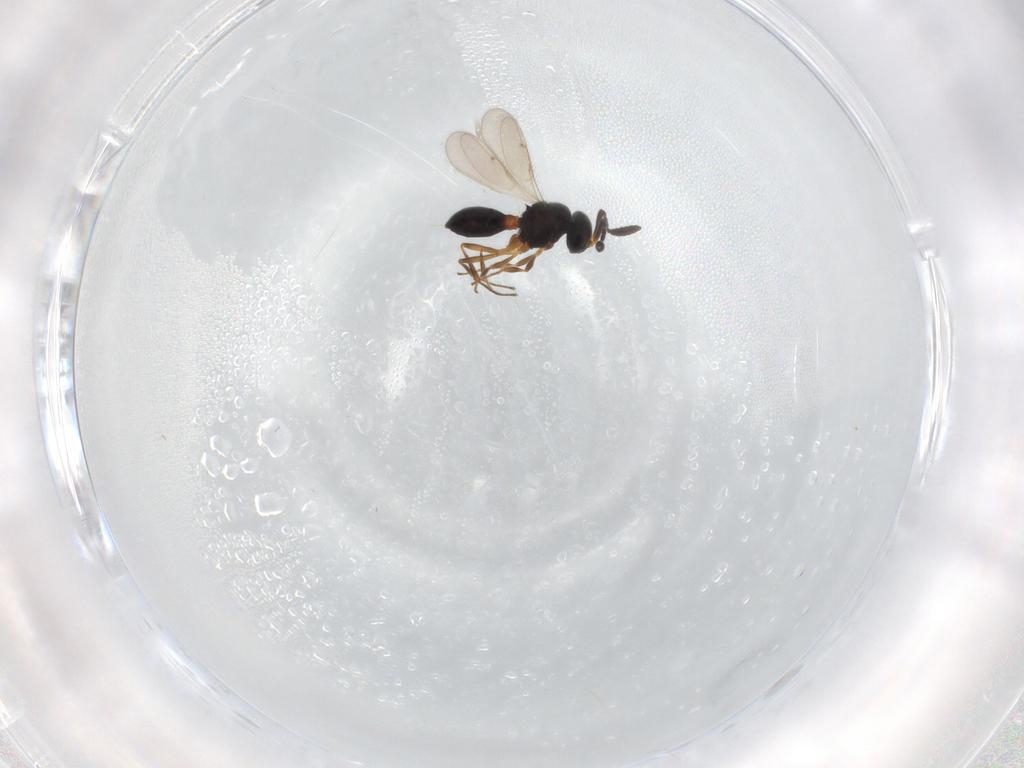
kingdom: Animalia
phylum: Arthropoda
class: Insecta
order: Hymenoptera
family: Scelionidae
